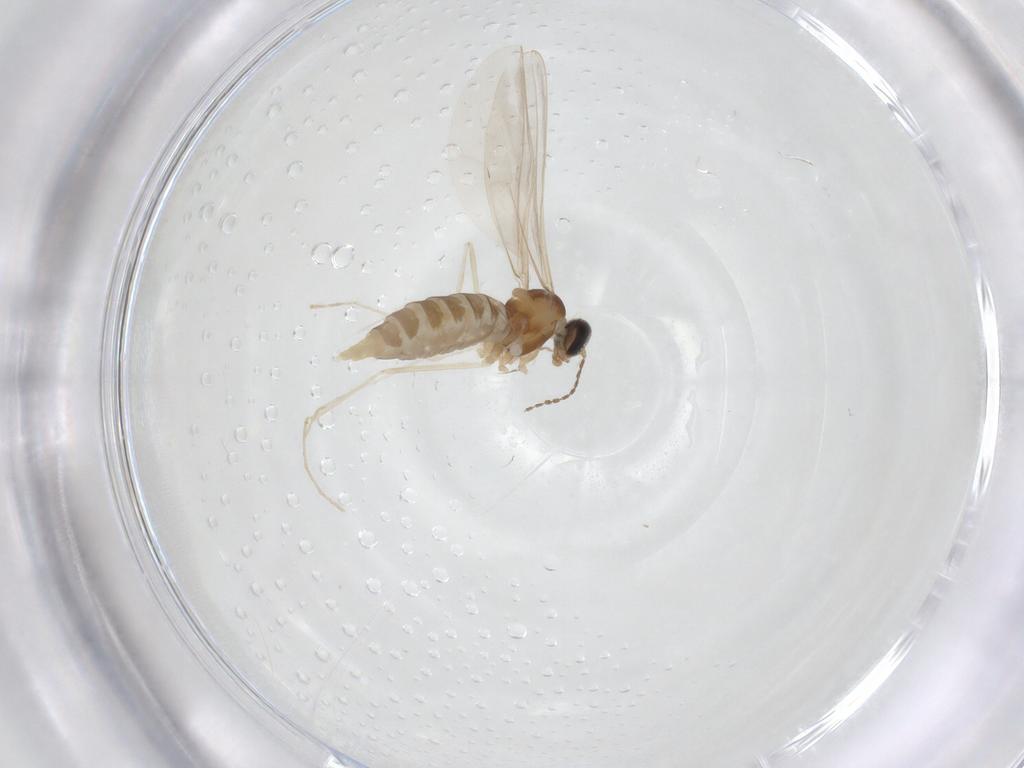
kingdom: Animalia
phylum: Arthropoda
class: Insecta
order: Diptera
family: Cecidomyiidae
